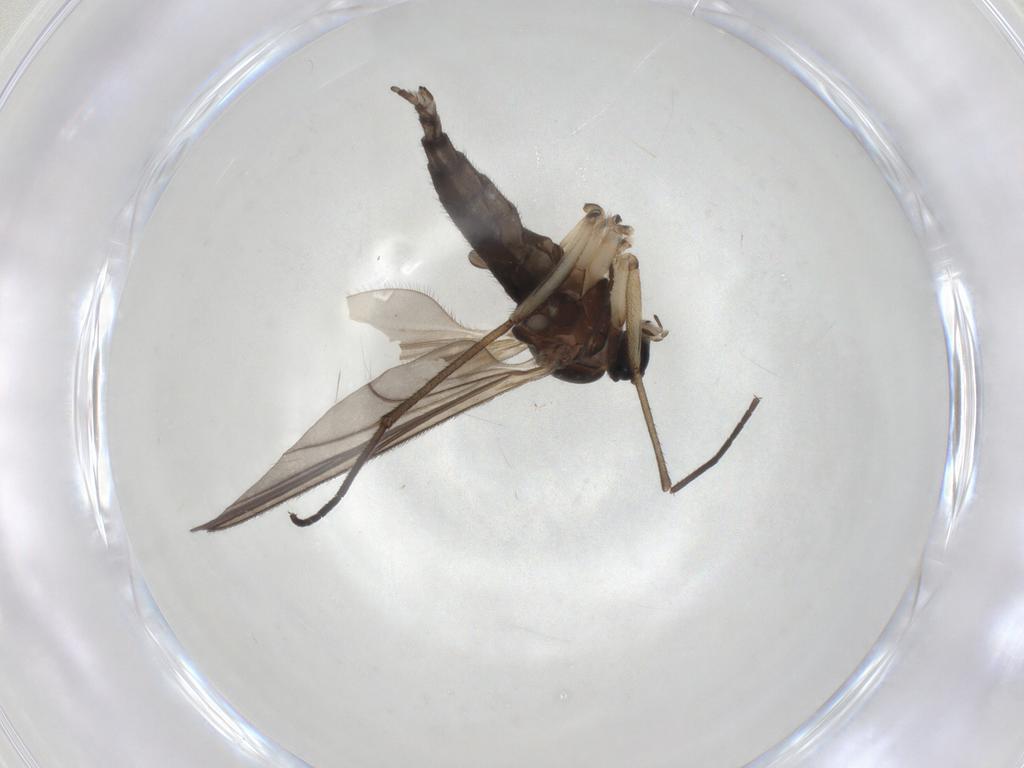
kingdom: Animalia
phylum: Arthropoda
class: Insecta
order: Diptera
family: Sciaridae
